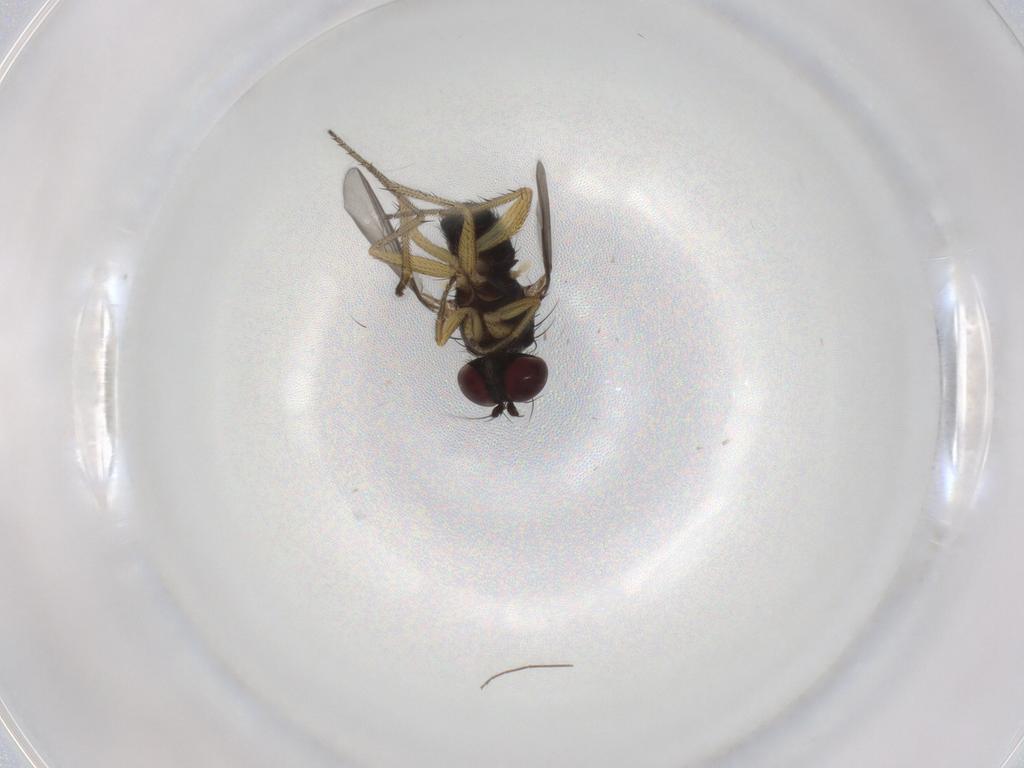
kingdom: Animalia
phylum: Arthropoda
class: Insecta
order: Diptera
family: Dolichopodidae
